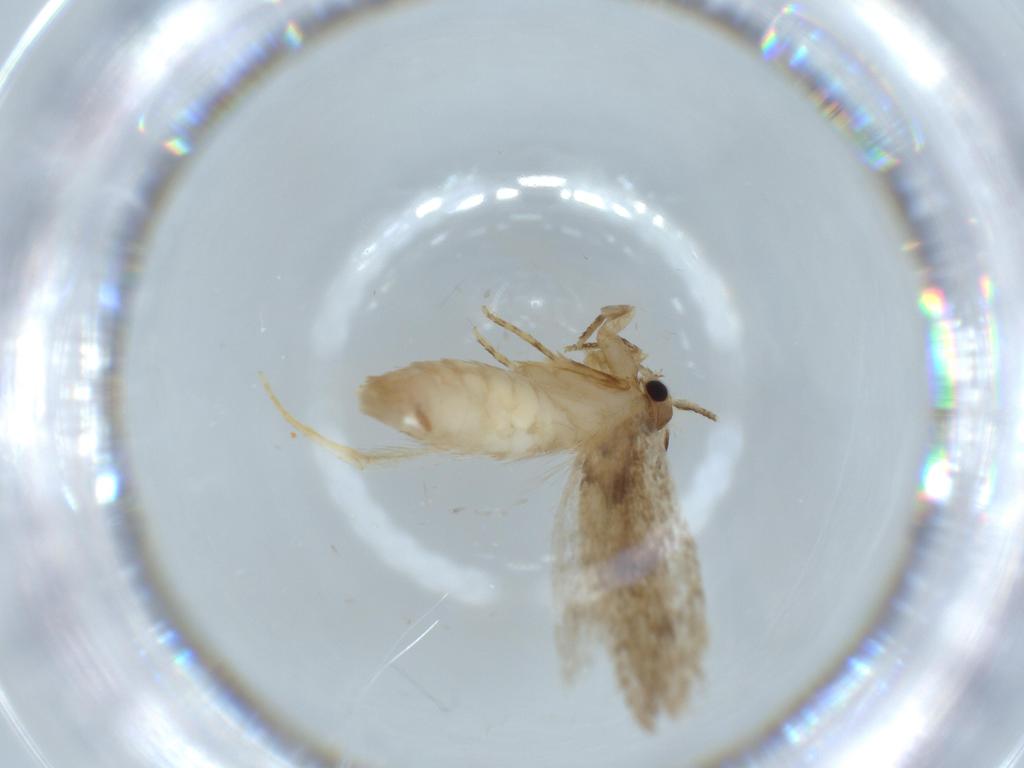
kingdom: Animalia
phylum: Arthropoda
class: Insecta
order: Lepidoptera
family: Tineidae
